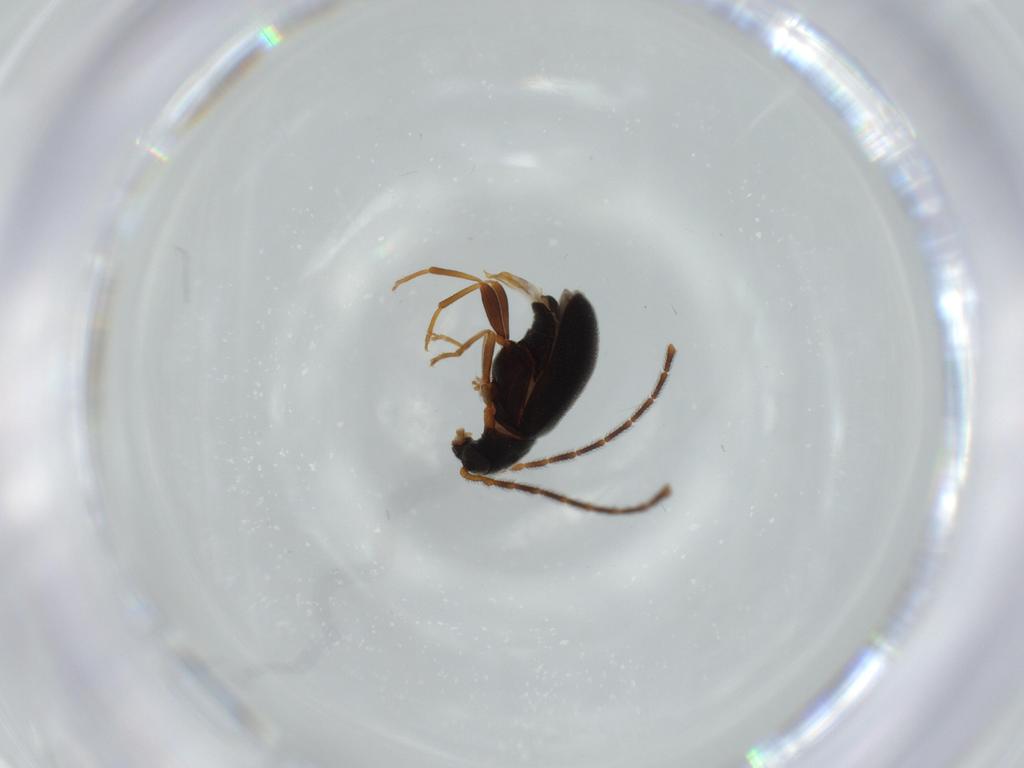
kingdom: Animalia
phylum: Arthropoda
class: Insecta
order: Coleoptera
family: Aderidae
